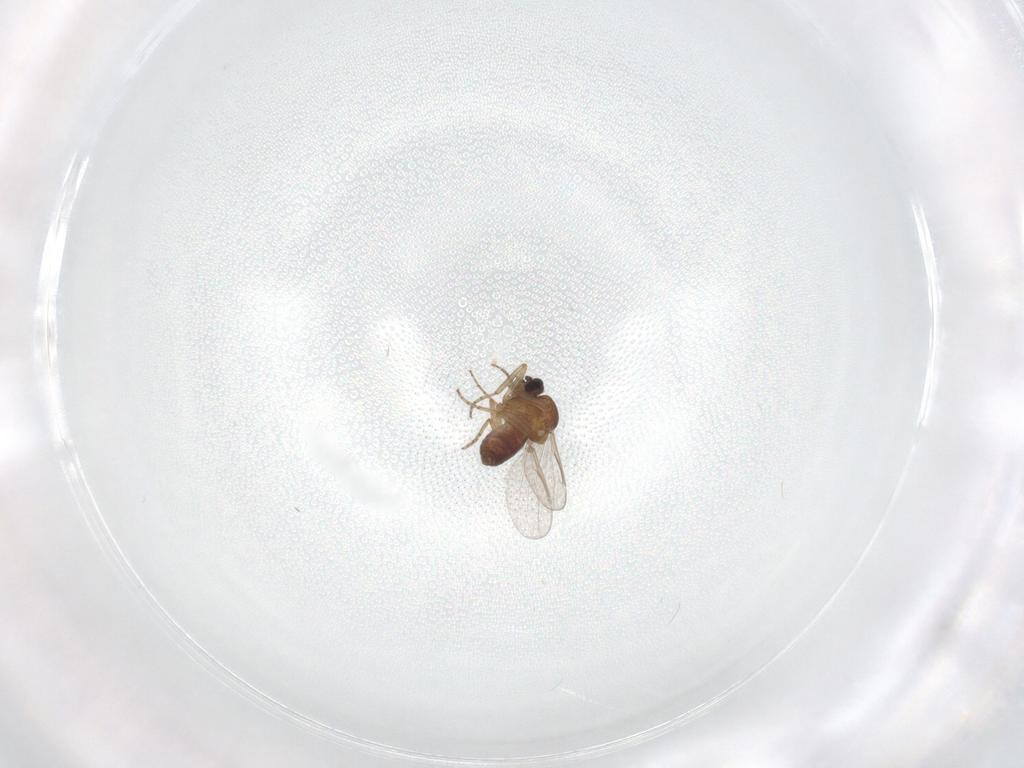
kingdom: Animalia
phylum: Arthropoda
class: Insecta
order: Diptera
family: Ceratopogonidae
